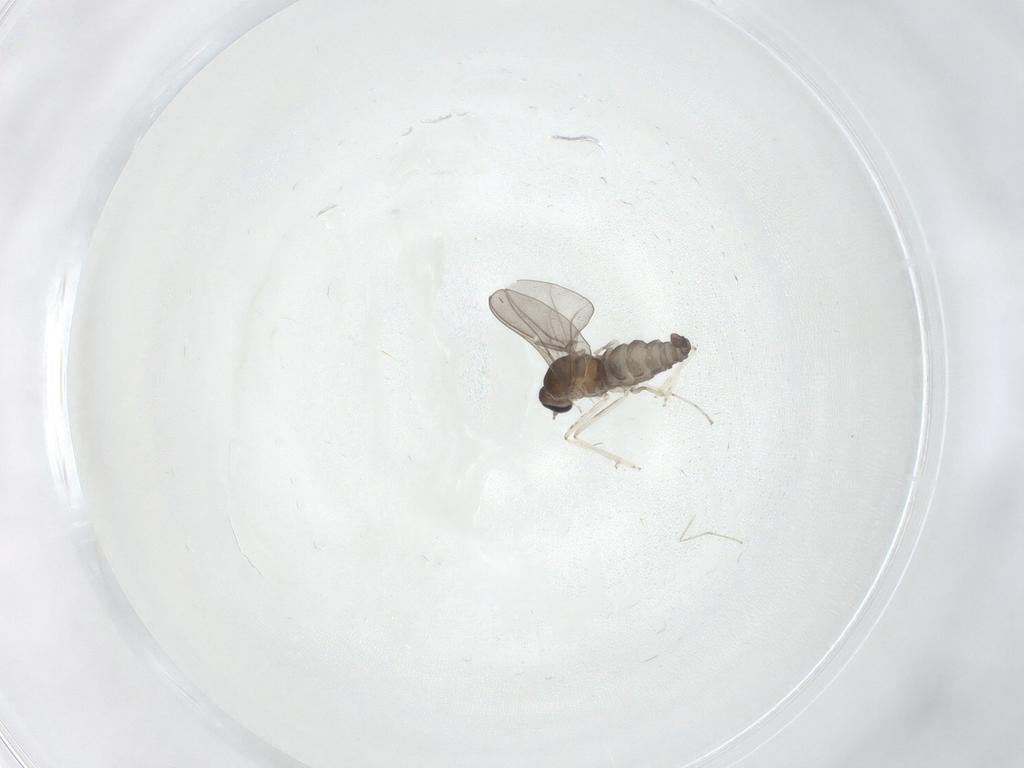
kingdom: Animalia
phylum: Arthropoda
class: Insecta
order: Diptera
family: Cecidomyiidae
